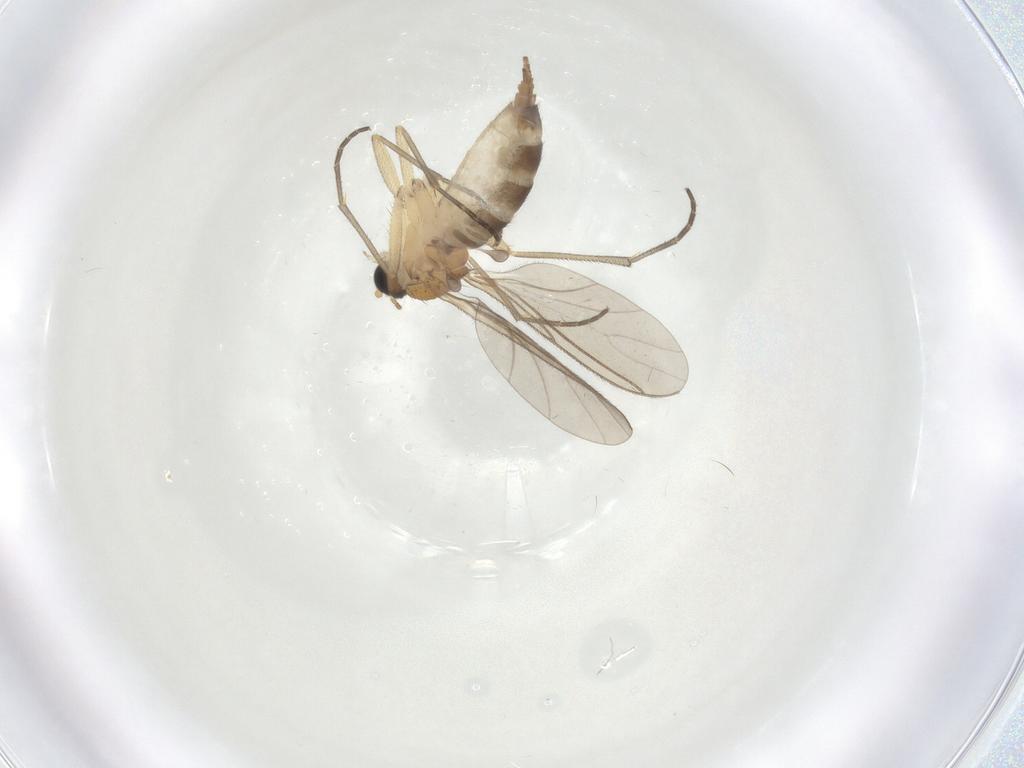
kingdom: Animalia
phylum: Arthropoda
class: Insecta
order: Diptera
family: Sciaridae
